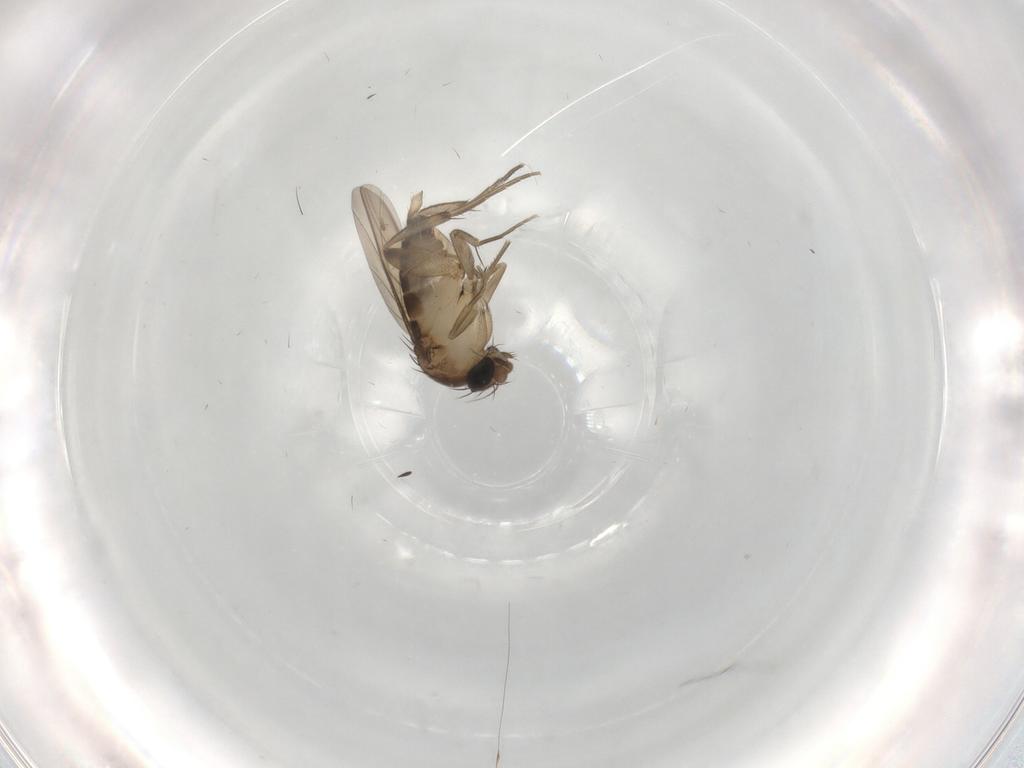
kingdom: Animalia
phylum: Arthropoda
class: Insecta
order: Diptera
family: Phoridae
